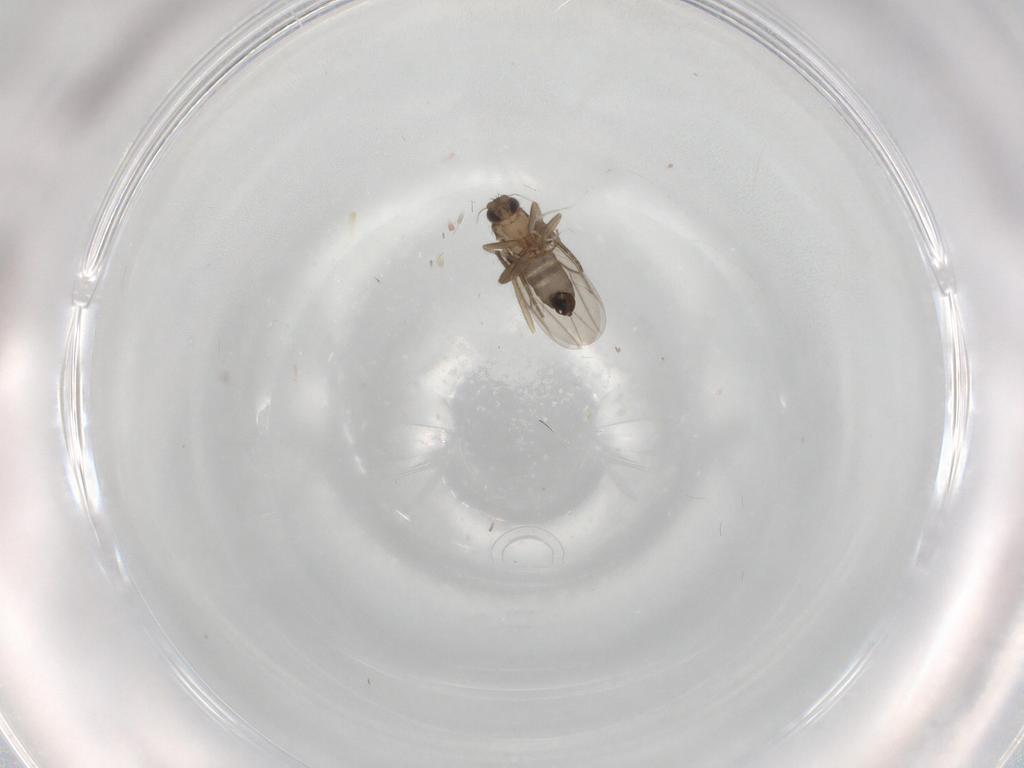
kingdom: Animalia
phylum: Arthropoda
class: Insecta
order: Diptera
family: Chironomidae
